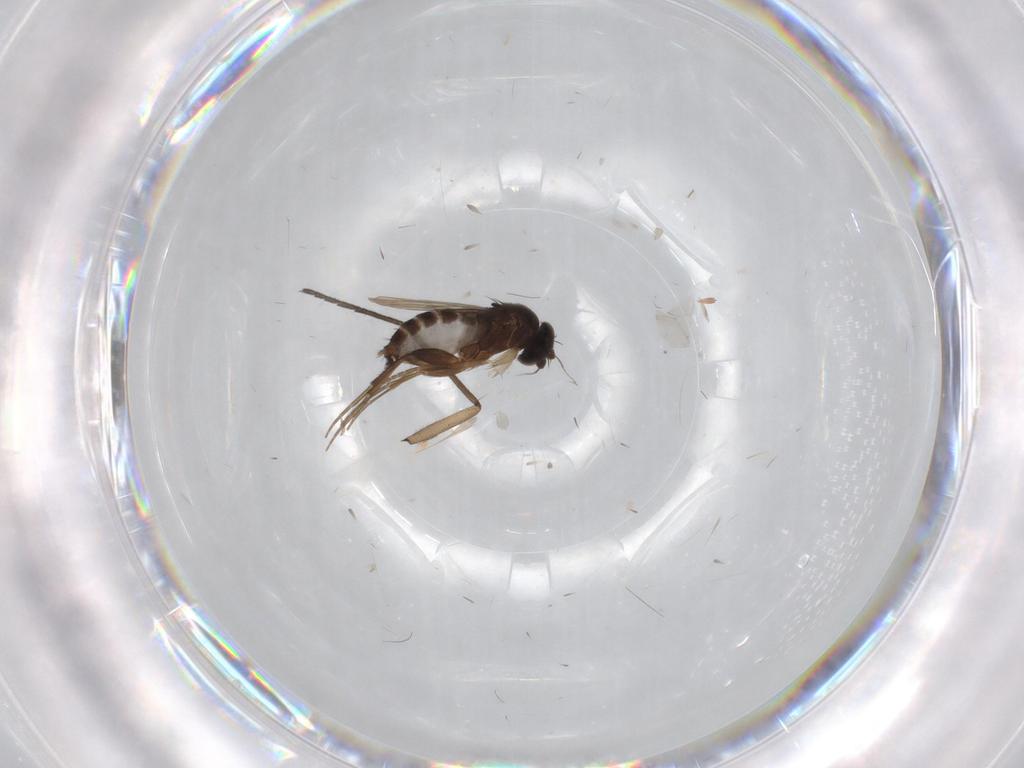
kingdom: Animalia
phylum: Arthropoda
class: Insecta
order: Diptera
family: Sciaridae
